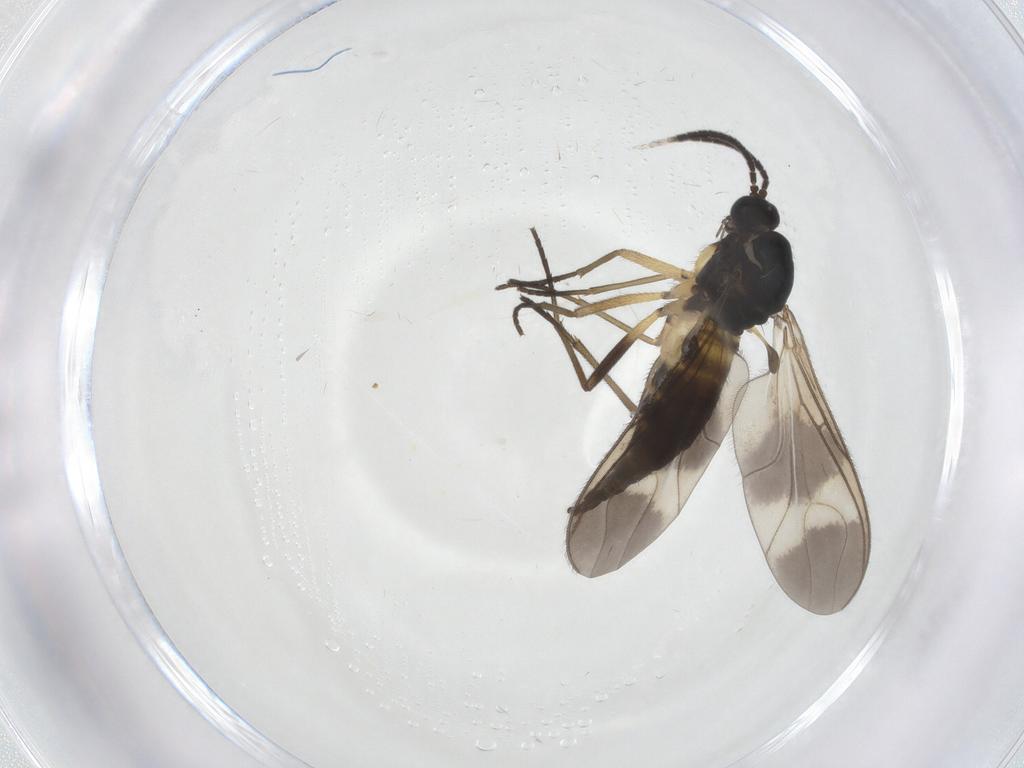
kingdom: Animalia
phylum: Arthropoda
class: Insecta
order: Diptera
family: Sciaridae
